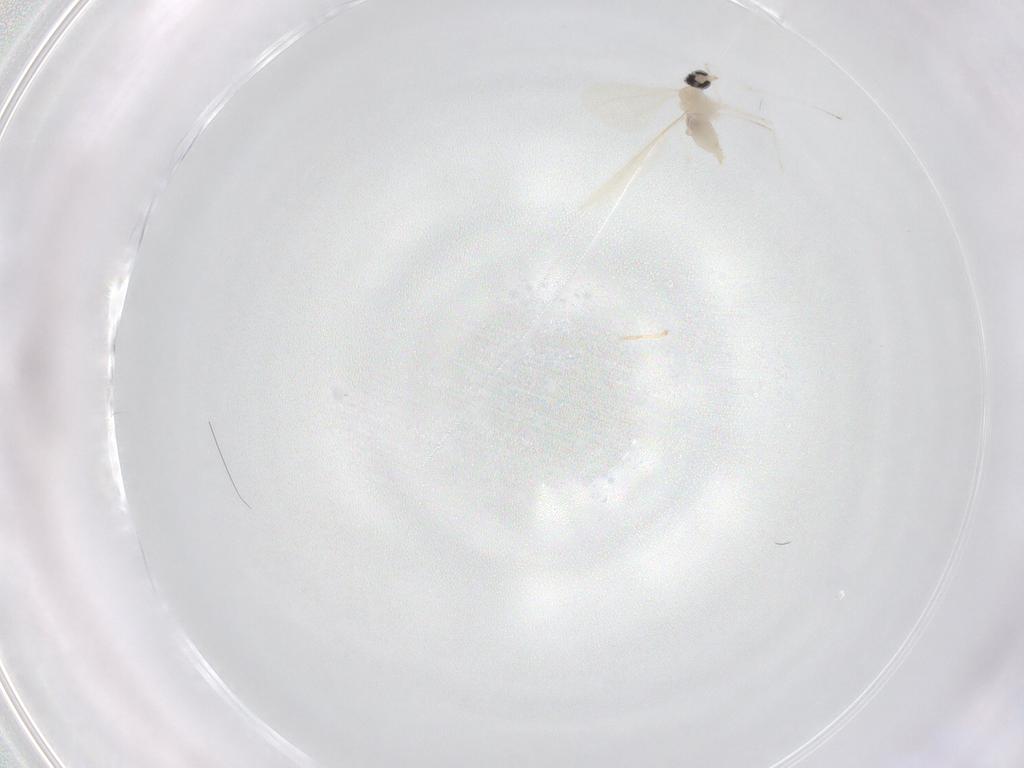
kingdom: Animalia
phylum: Arthropoda
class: Insecta
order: Diptera
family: Cecidomyiidae
